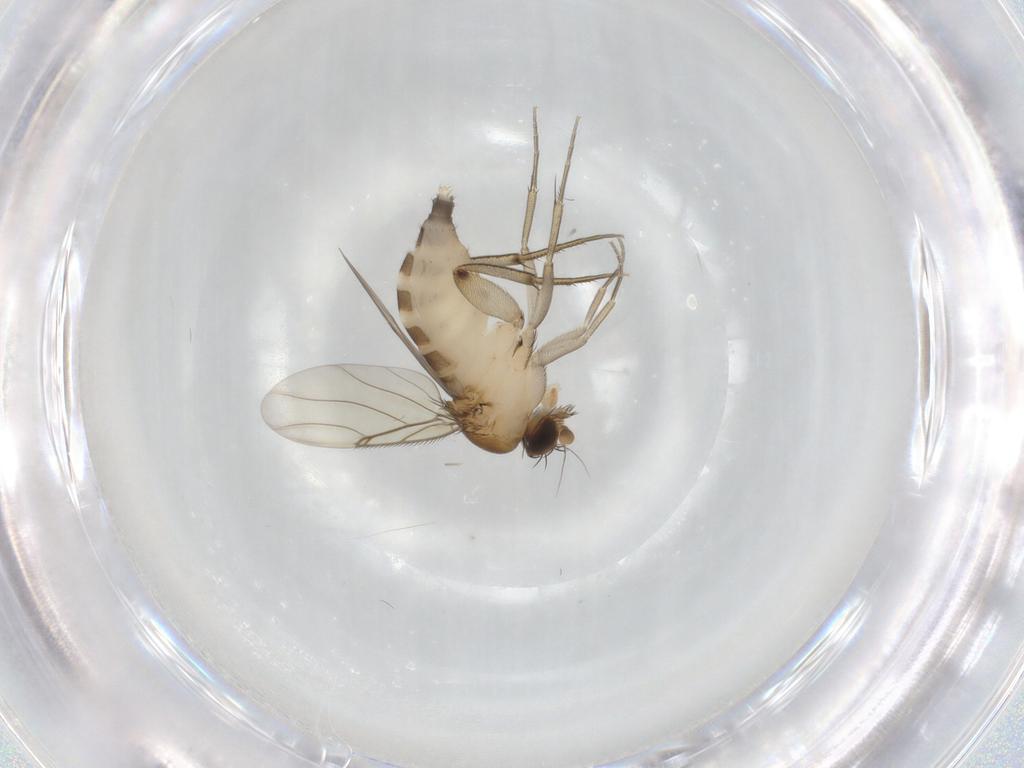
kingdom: Animalia
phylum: Arthropoda
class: Insecta
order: Diptera
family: Phoridae
